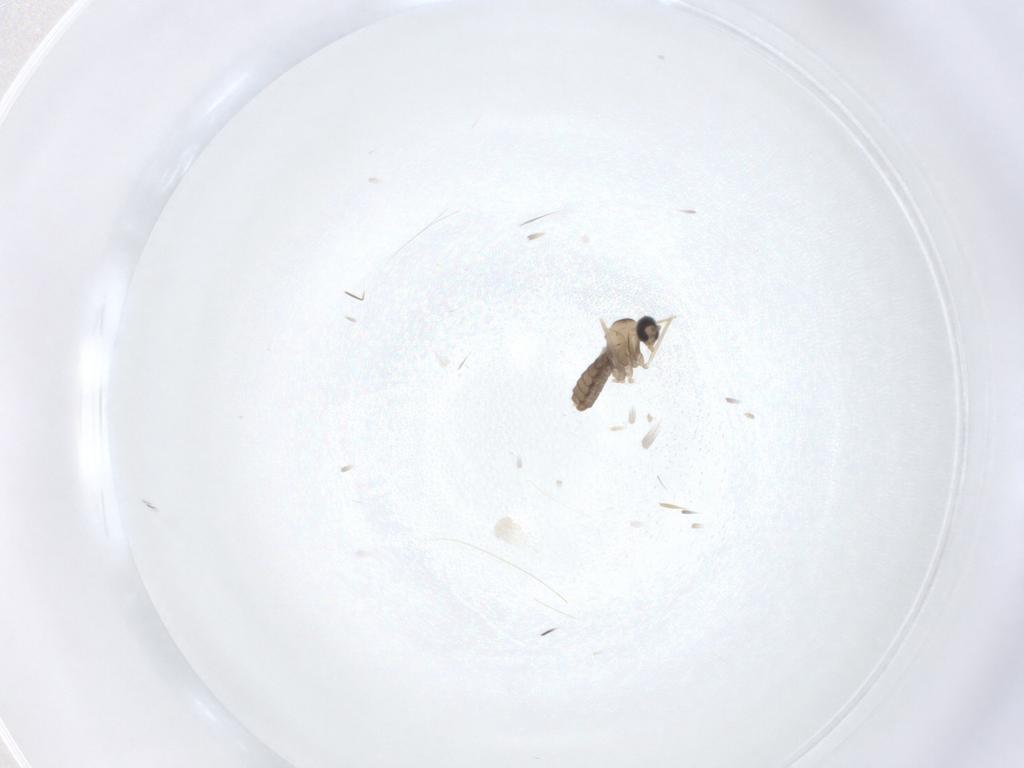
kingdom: Animalia
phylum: Arthropoda
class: Insecta
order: Diptera
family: Cecidomyiidae
